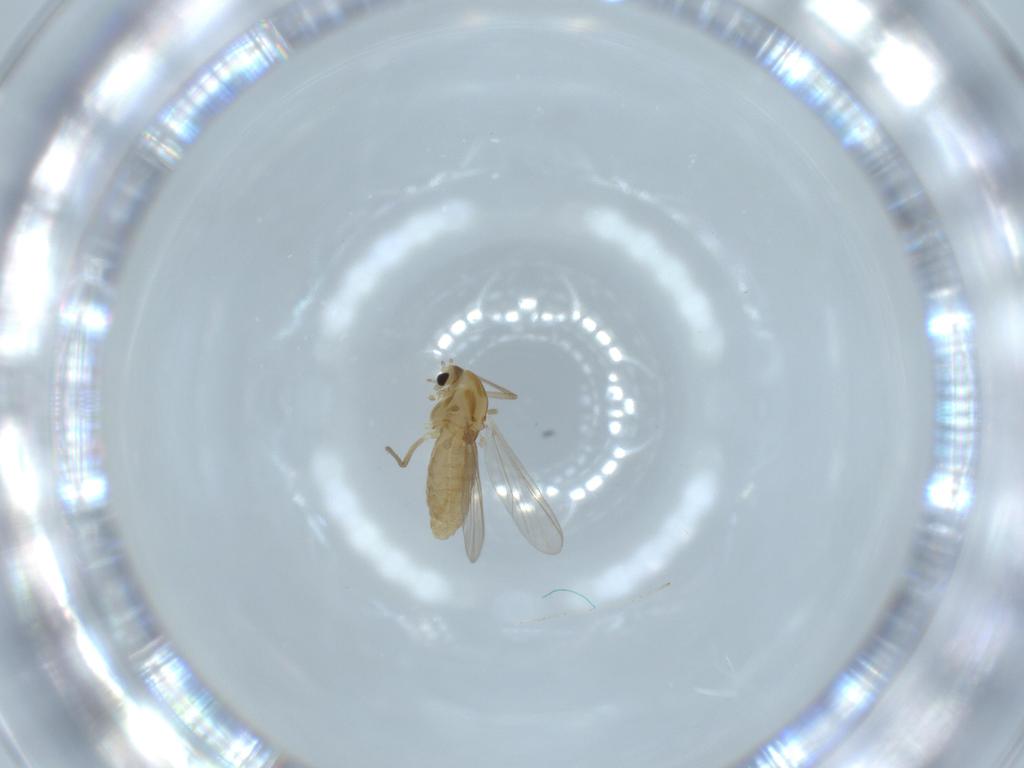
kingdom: Animalia
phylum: Arthropoda
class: Insecta
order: Diptera
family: Chironomidae
